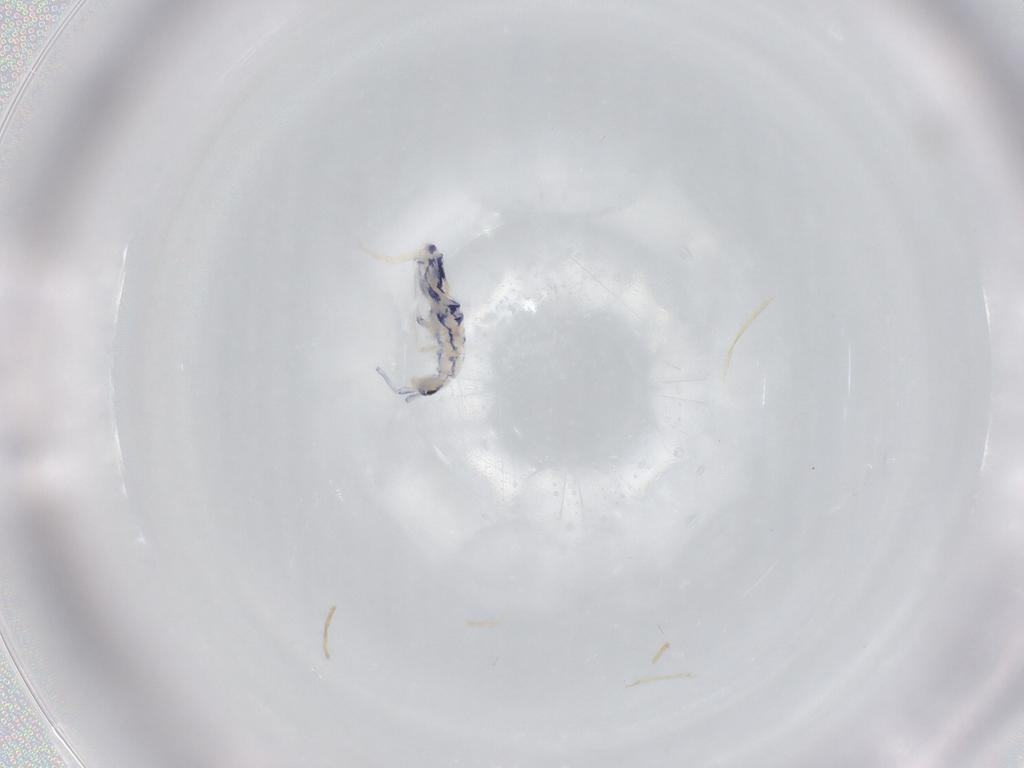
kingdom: Animalia
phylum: Arthropoda
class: Collembola
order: Entomobryomorpha
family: Entomobryidae
